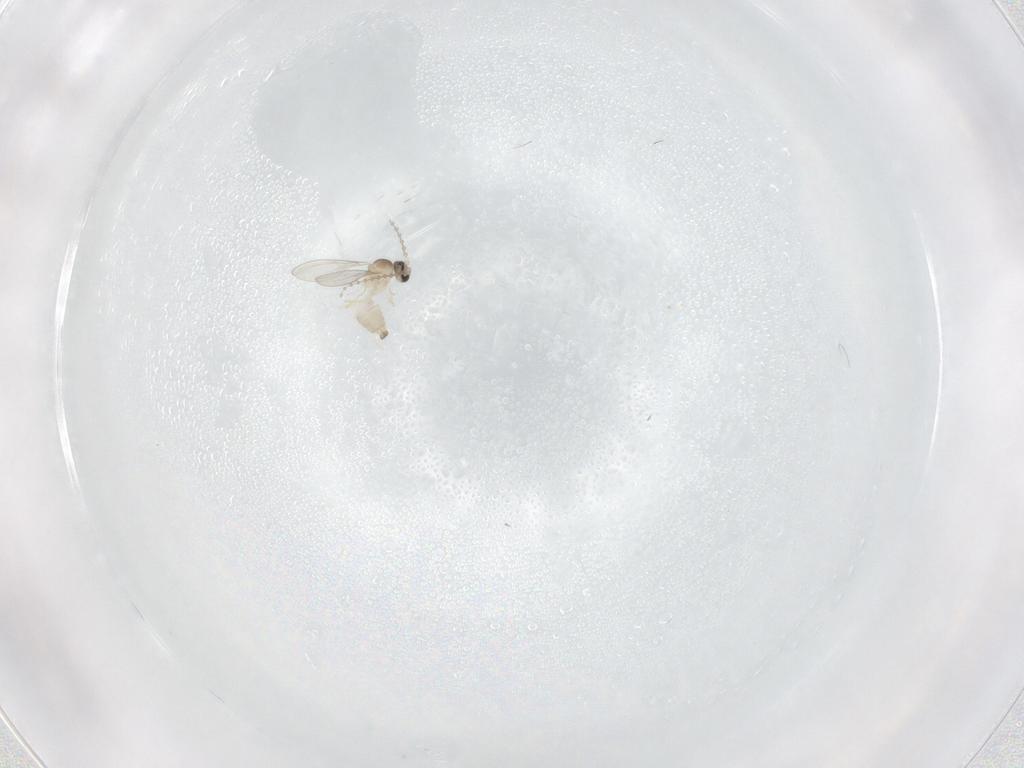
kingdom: Animalia
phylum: Arthropoda
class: Insecta
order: Diptera
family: Cecidomyiidae
